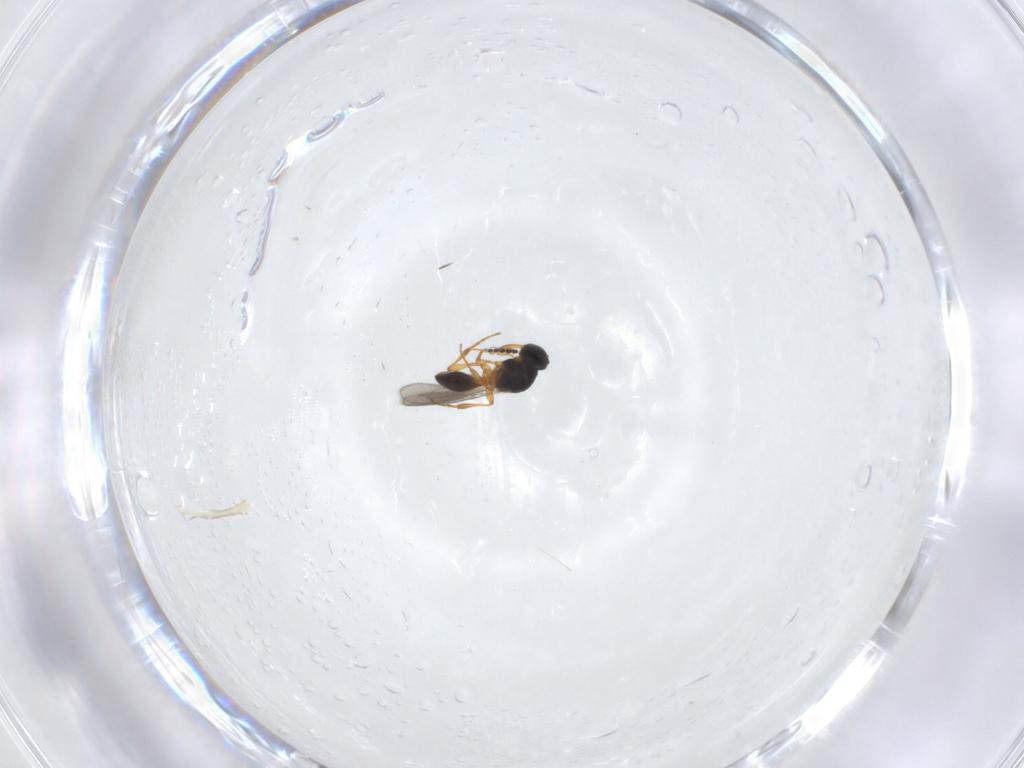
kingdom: Animalia
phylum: Arthropoda
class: Insecta
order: Hymenoptera
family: Platygastridae
